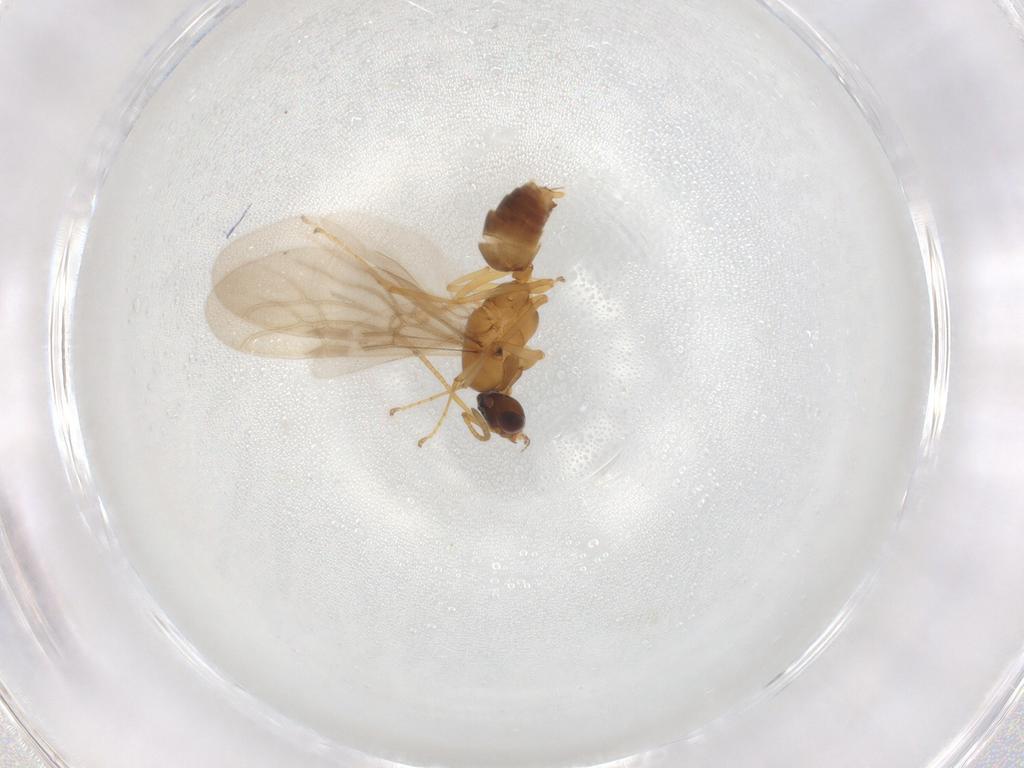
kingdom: Animalia
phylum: Arthropoda
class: Insecta
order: Hymenoptera
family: Formicidae
